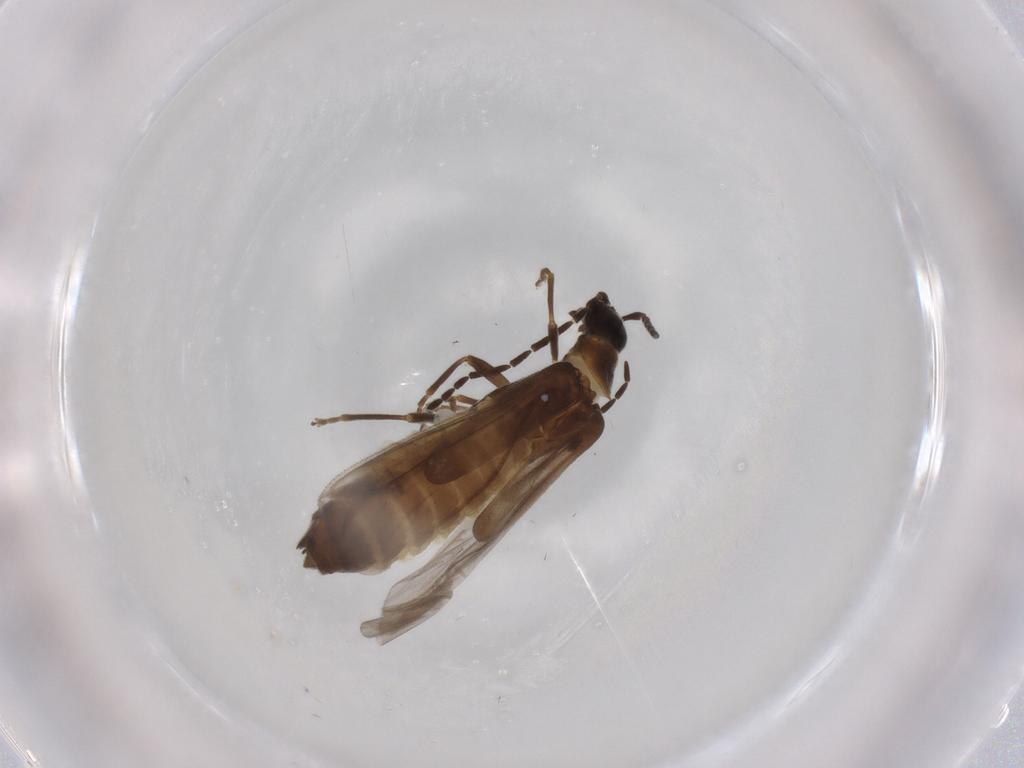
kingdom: Animalia
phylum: Arthropoda
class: Insecta
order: Coleoptera
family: Cantharidae
